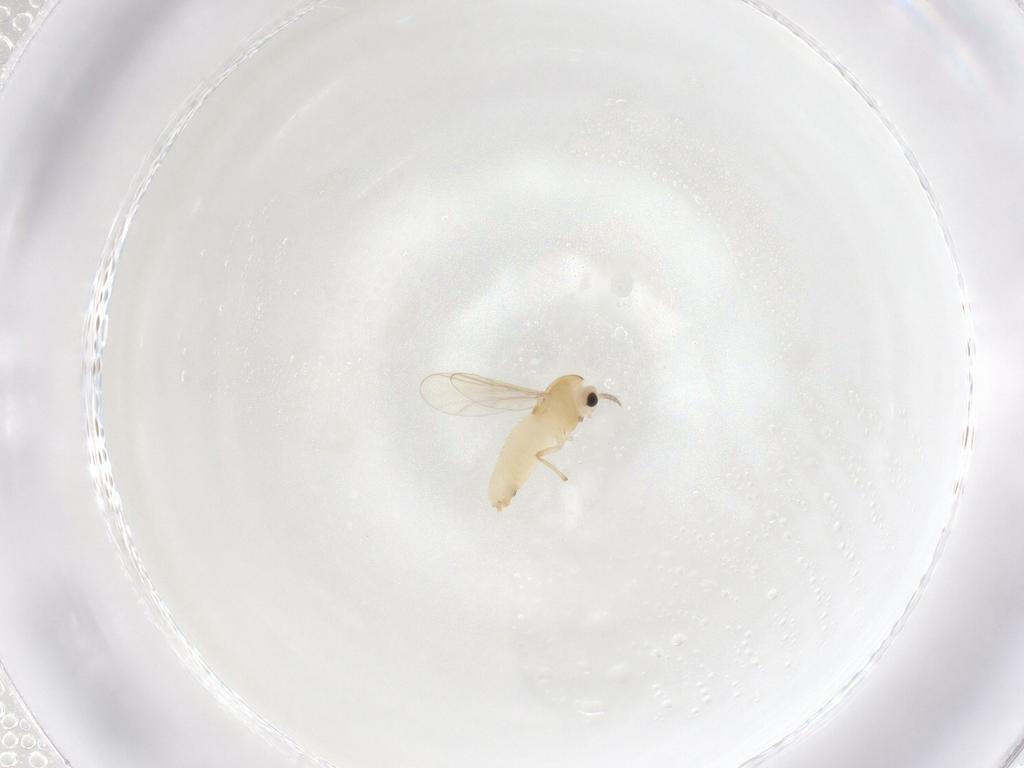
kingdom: Animalia
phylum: Arthropoda
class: Insecta
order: Diptera
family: Chironomidae
